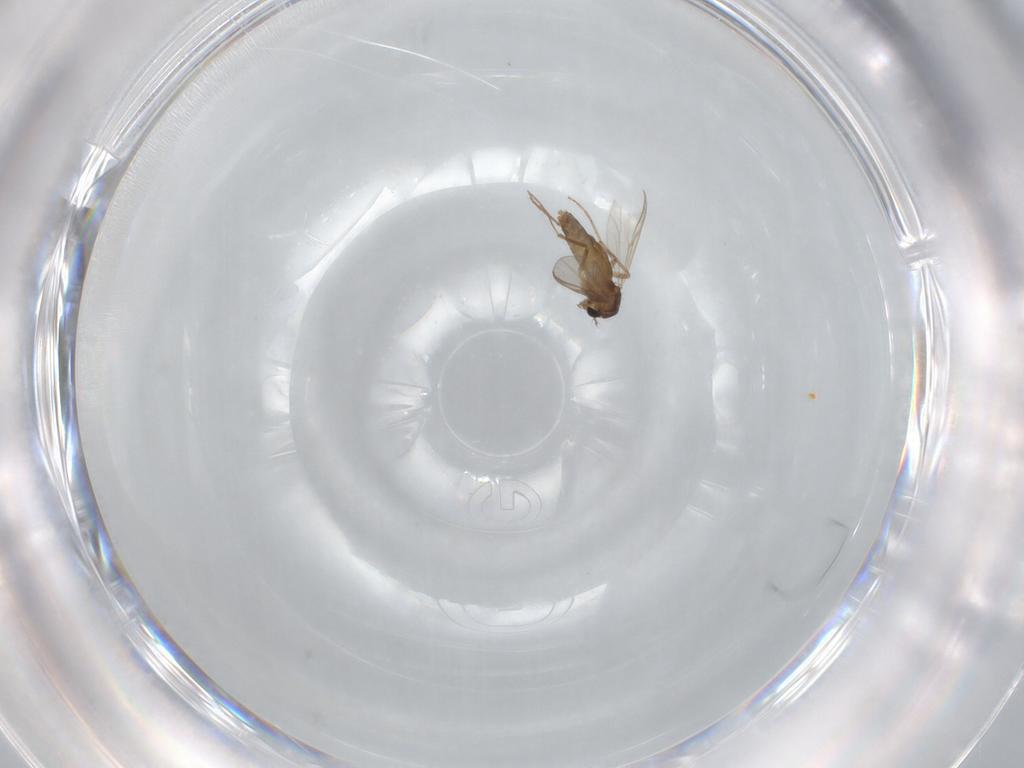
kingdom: Animalia
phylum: Arthropoda
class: Insecta
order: Diptera
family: Chironomidae
